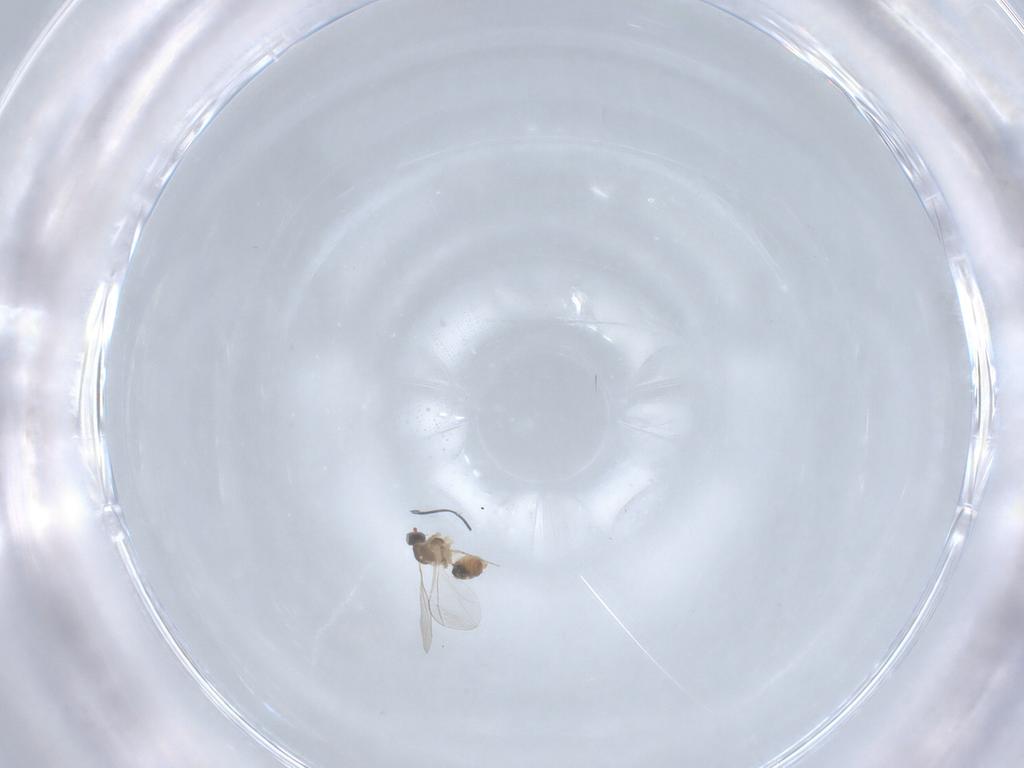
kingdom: Animalia
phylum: Arthropoda
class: Insecta
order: Diptera
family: Cecidomyiidae
